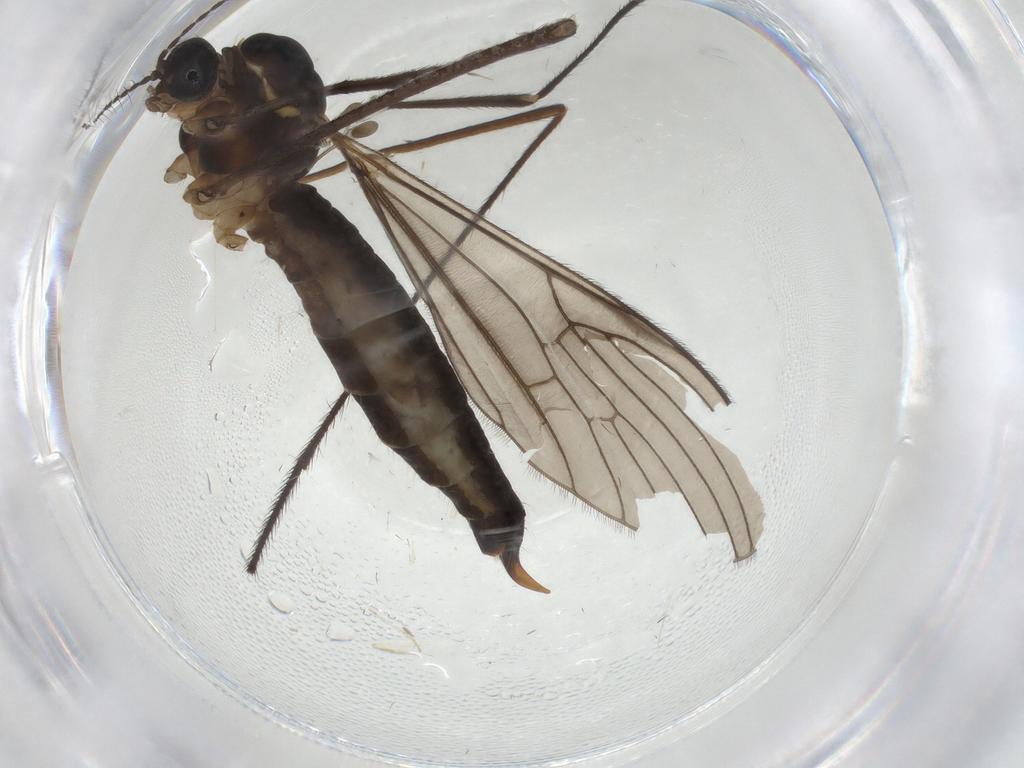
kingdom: Animalia
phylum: Arthropoda
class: Insecta
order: Diptera
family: Limoniidae
